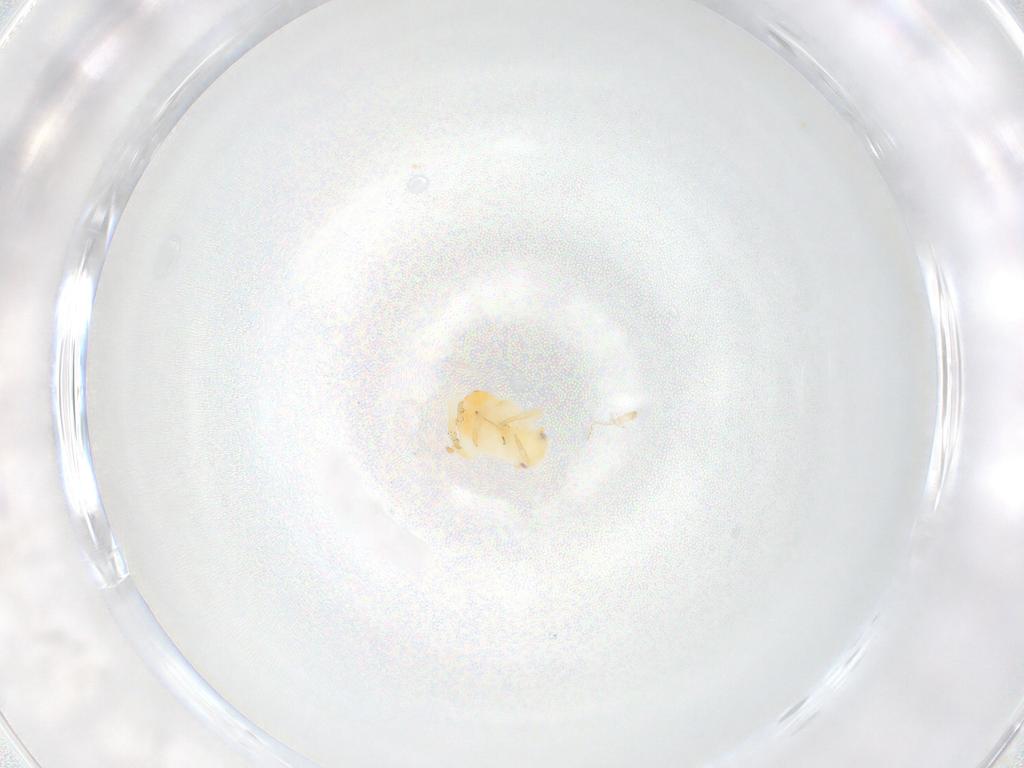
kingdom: Animalia
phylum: Arthropoda
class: Insecta
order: Hemiptera
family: Flatidae
